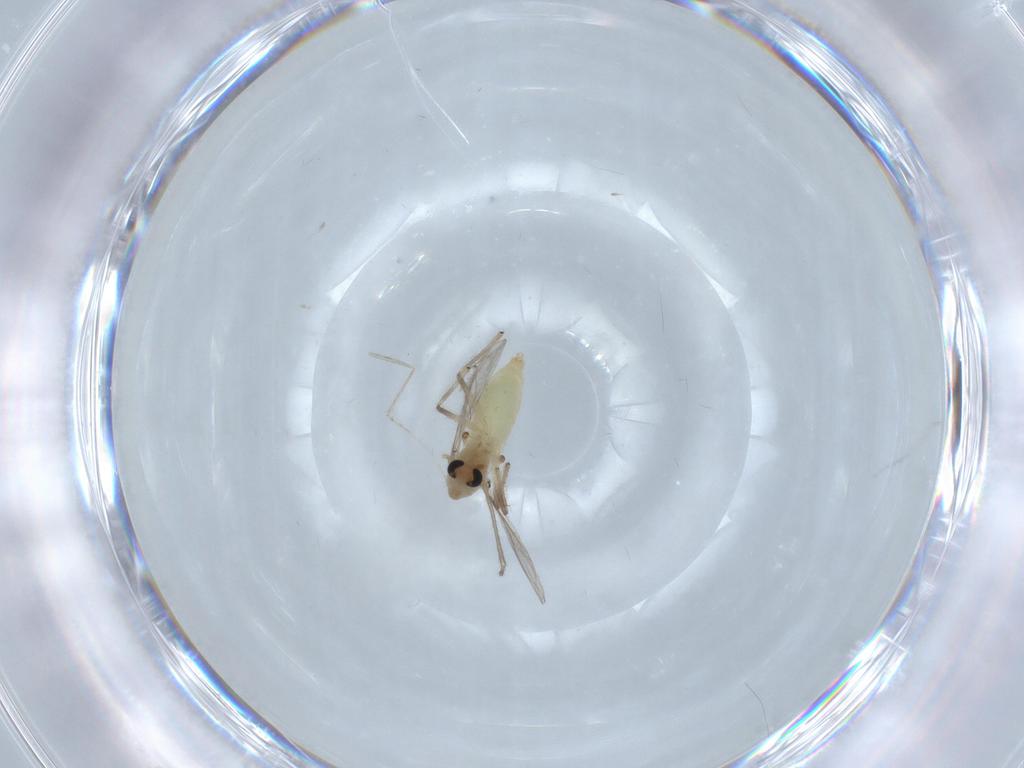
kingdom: Animalia
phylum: Arthropoda
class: Insecta
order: Diptera
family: Chironomidae
